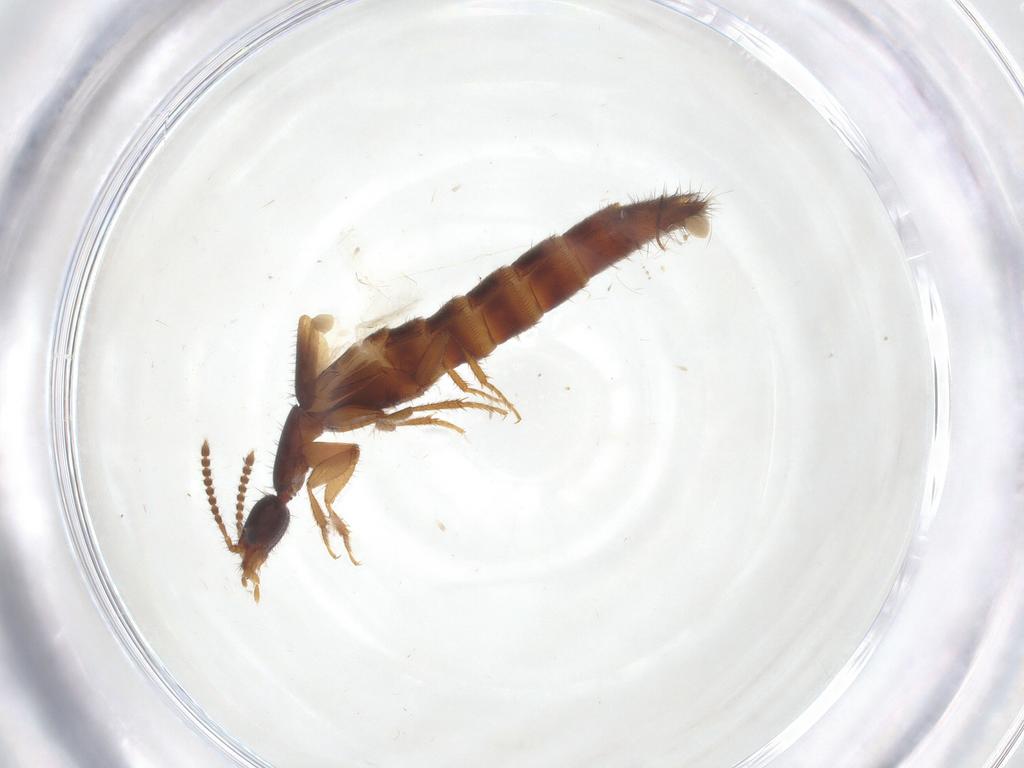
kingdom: Animalia
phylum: Arthropoda
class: Insecta
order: Coleoptera
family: Staphylinidae
